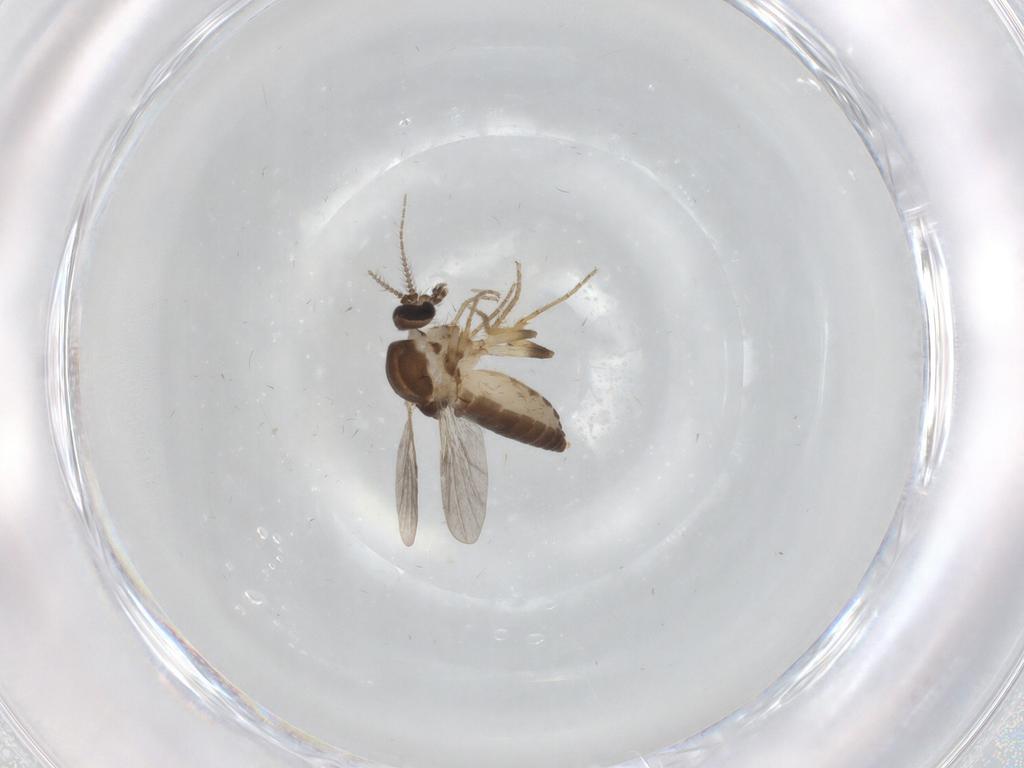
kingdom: Animalia
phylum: Arthropoda
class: Insecta
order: Diptera
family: Ceratopogonidae
